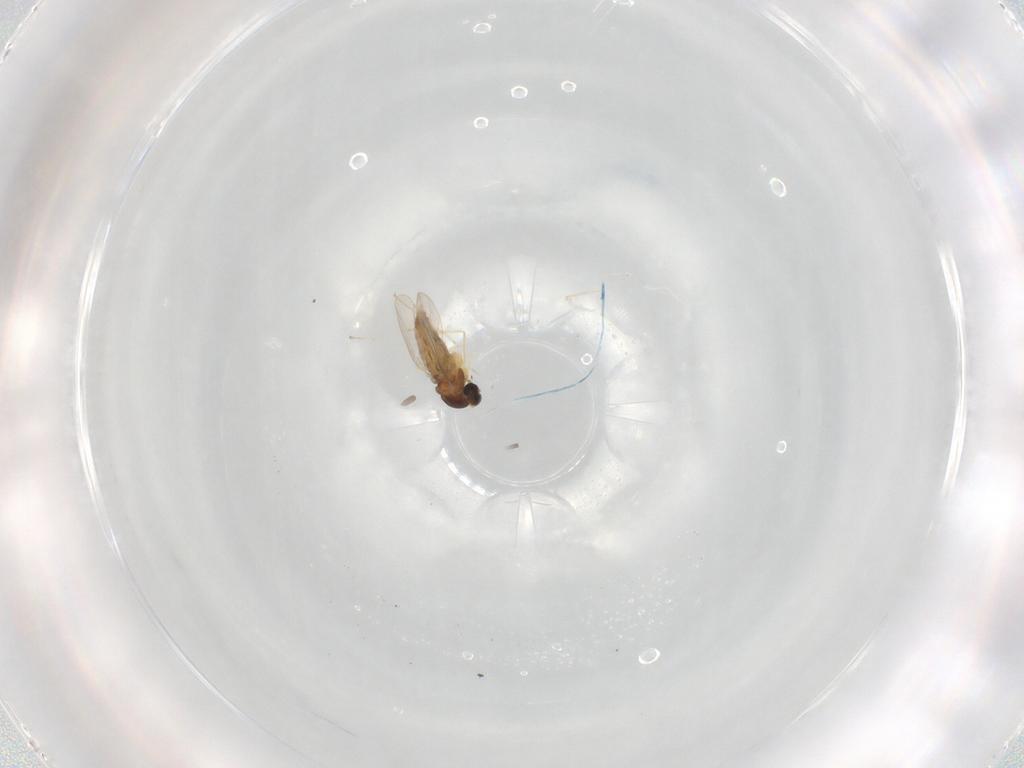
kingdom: Animalia
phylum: Arthropoda
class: Insecta
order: Diptera
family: Cecidomyiidae
